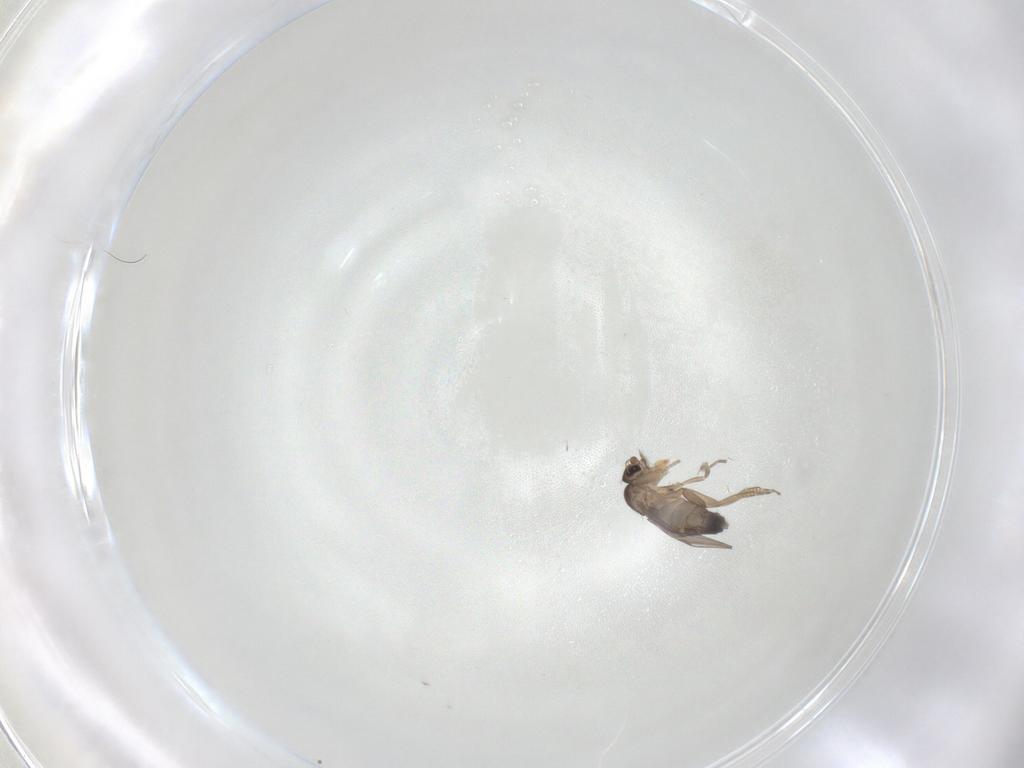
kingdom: Animalia
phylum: Arthropoda
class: Insecta
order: Diptera
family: Phoridae
